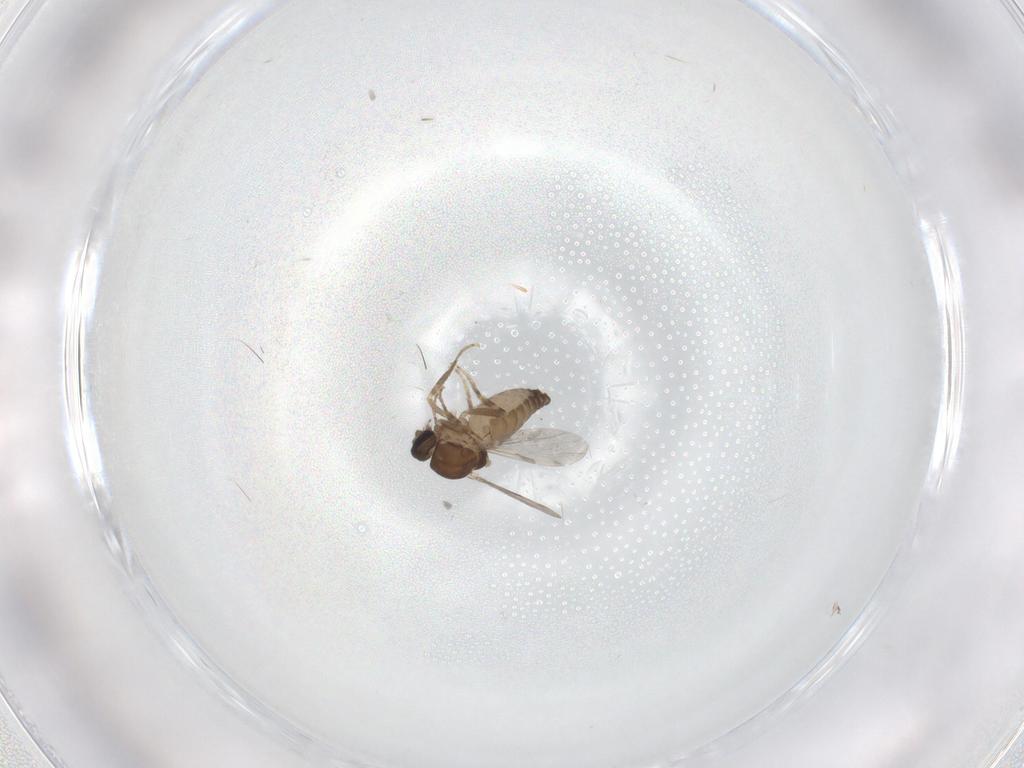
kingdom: Animalia
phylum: Arthropoda
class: Insecta
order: Diptera
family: Ceratopogonidae
